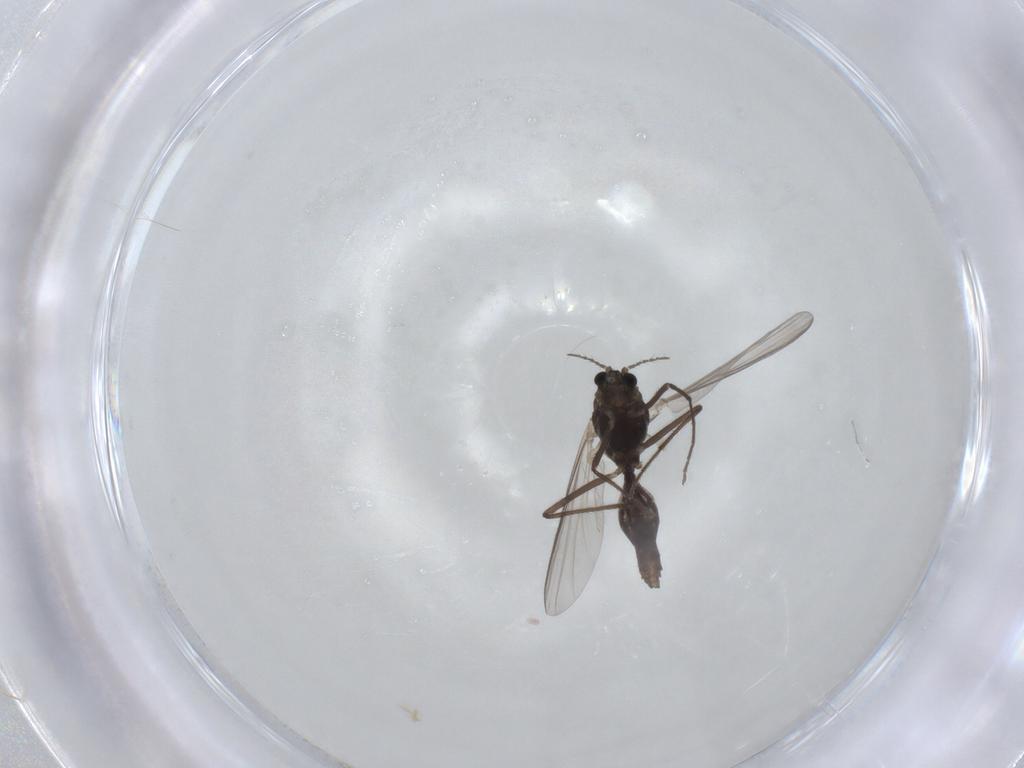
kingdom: Animalia
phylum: Arthropoda
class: Insecta
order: Diptera
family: Chironomidae
